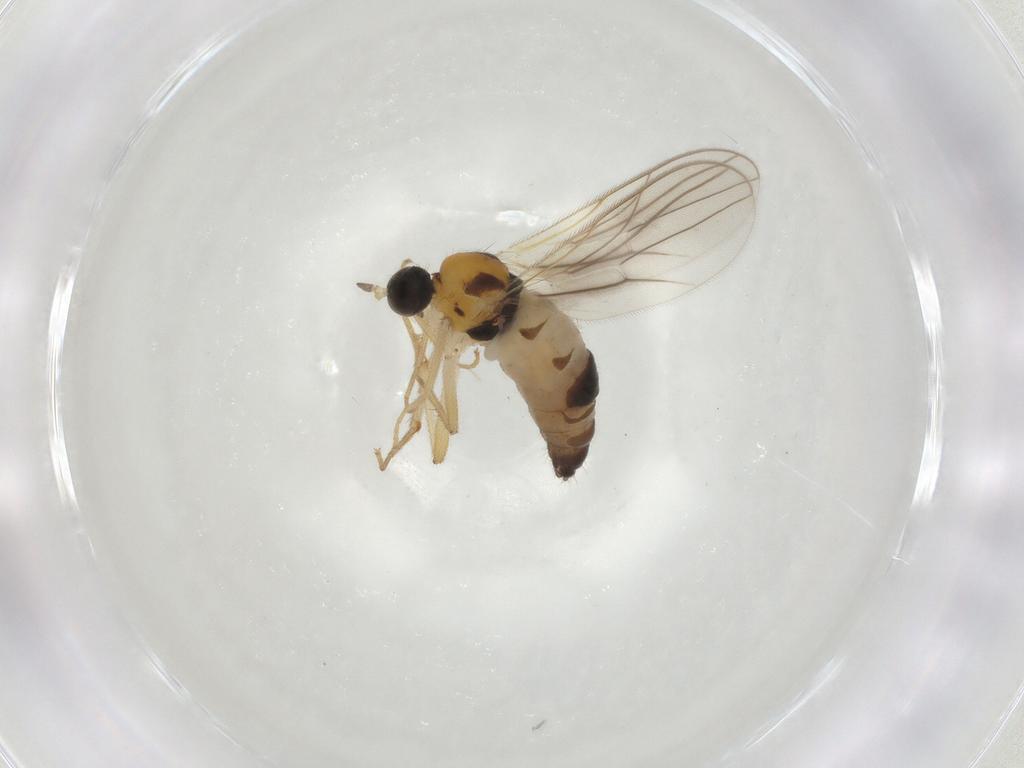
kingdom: Animalia
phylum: Arthropoda
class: Insecta
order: Diptera
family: Hybotidae
